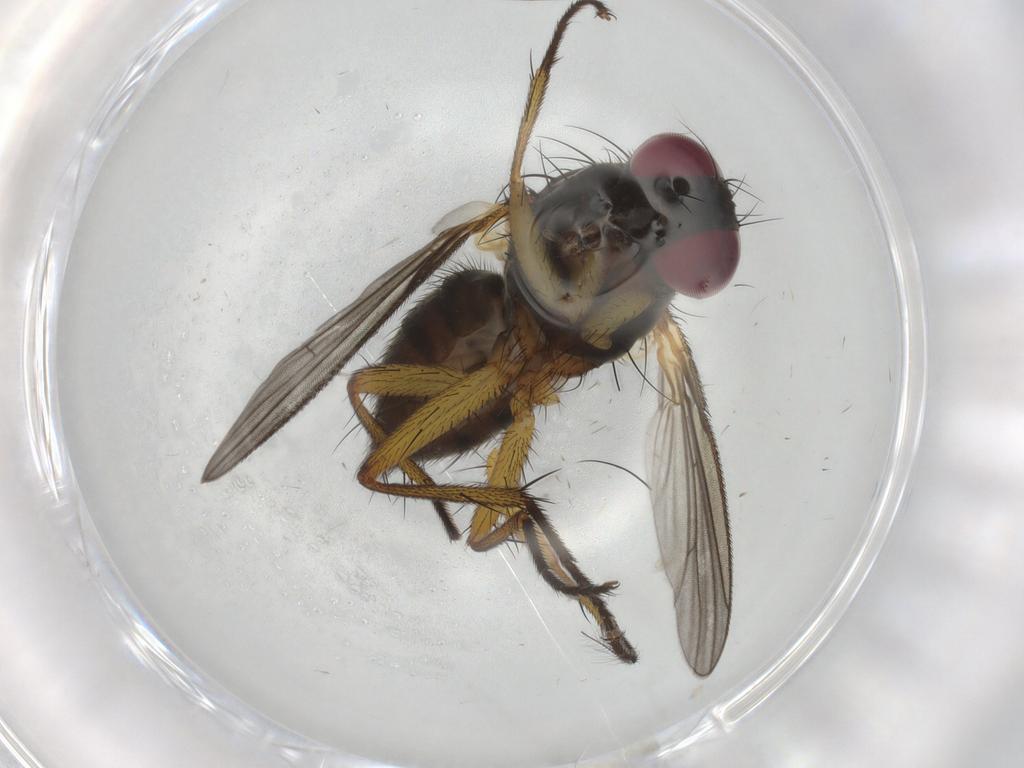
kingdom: Animalia
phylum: Arthropoda
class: Insecta
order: Diptera
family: Muscidae
